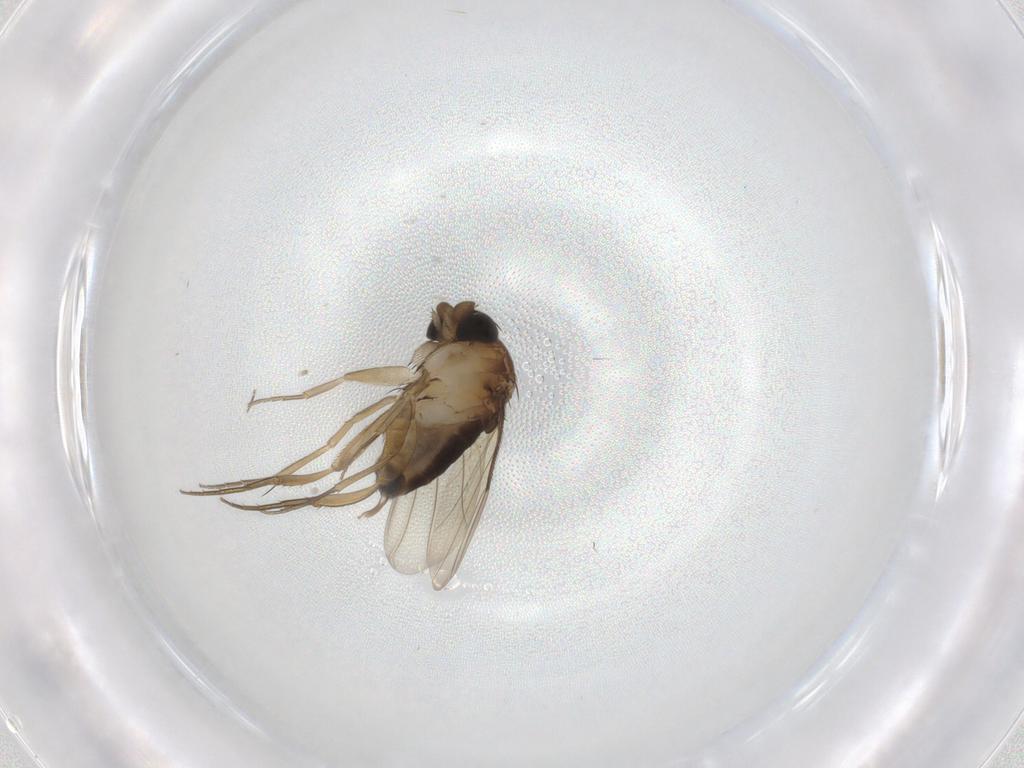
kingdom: Animalia
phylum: Arthropoda
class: Insecta
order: Diptera
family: Phoridae
